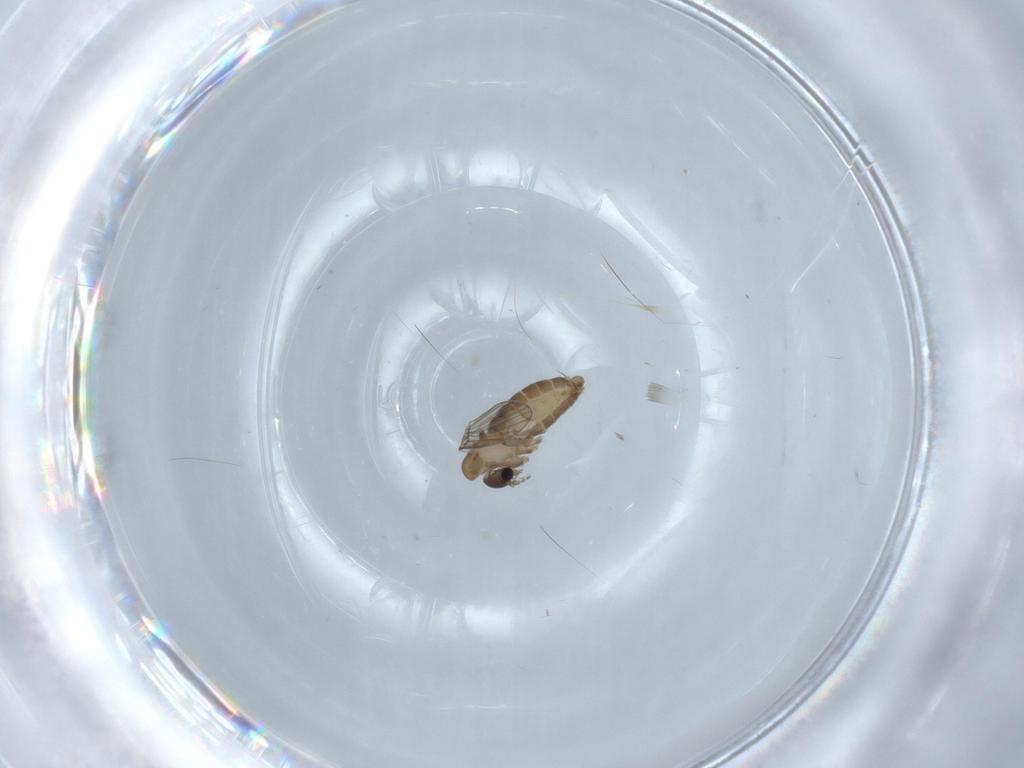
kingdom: Animalia
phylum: Arthropoda
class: Insecta
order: Diptera
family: Psychodidae
